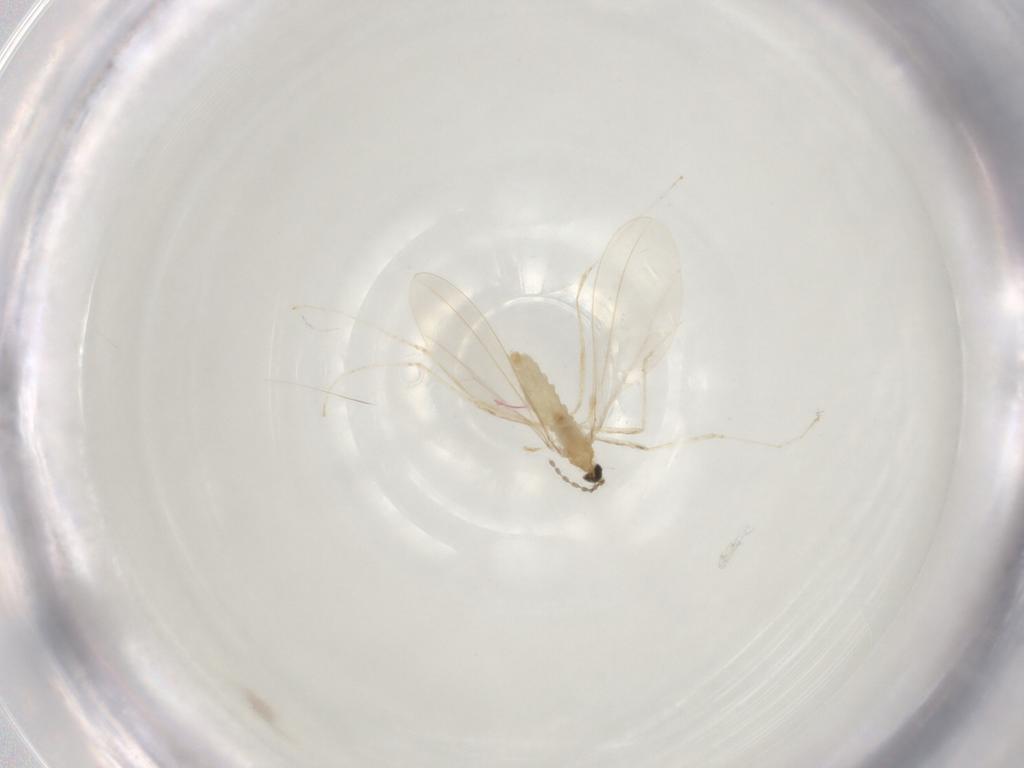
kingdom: Animalia
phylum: Arthropoda
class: Insecta
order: Diptera
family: Cecidomyiidae
